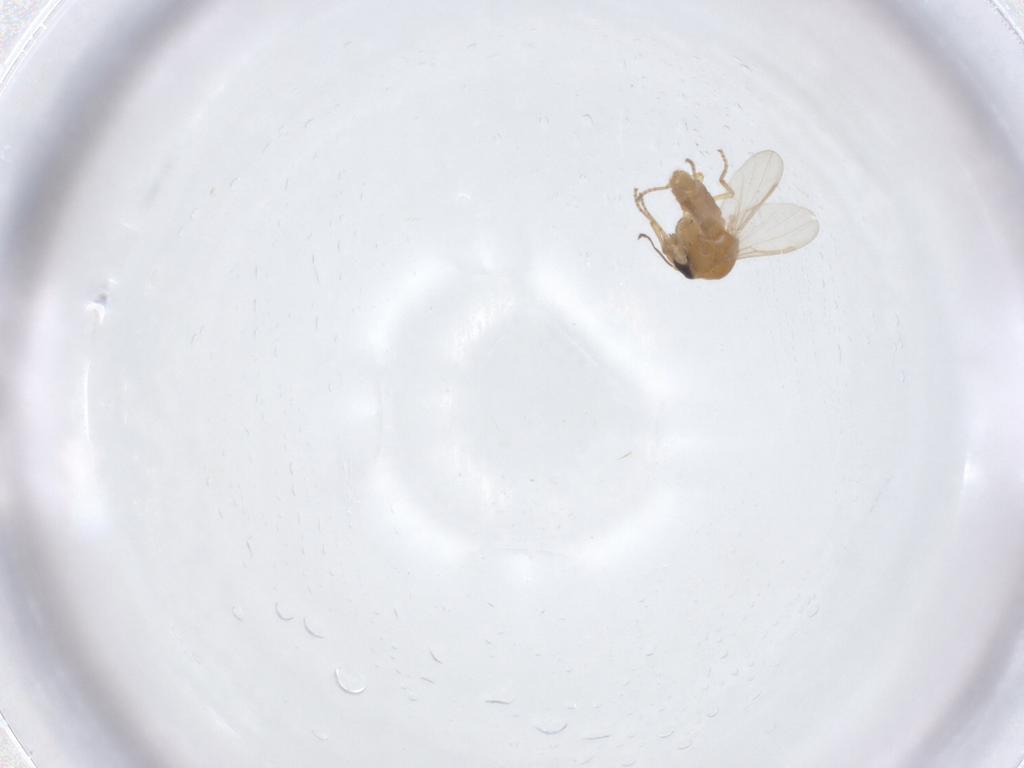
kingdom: Animalia
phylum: Arthropoda
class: Insecta
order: Diptera
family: Ceratopogonidae
